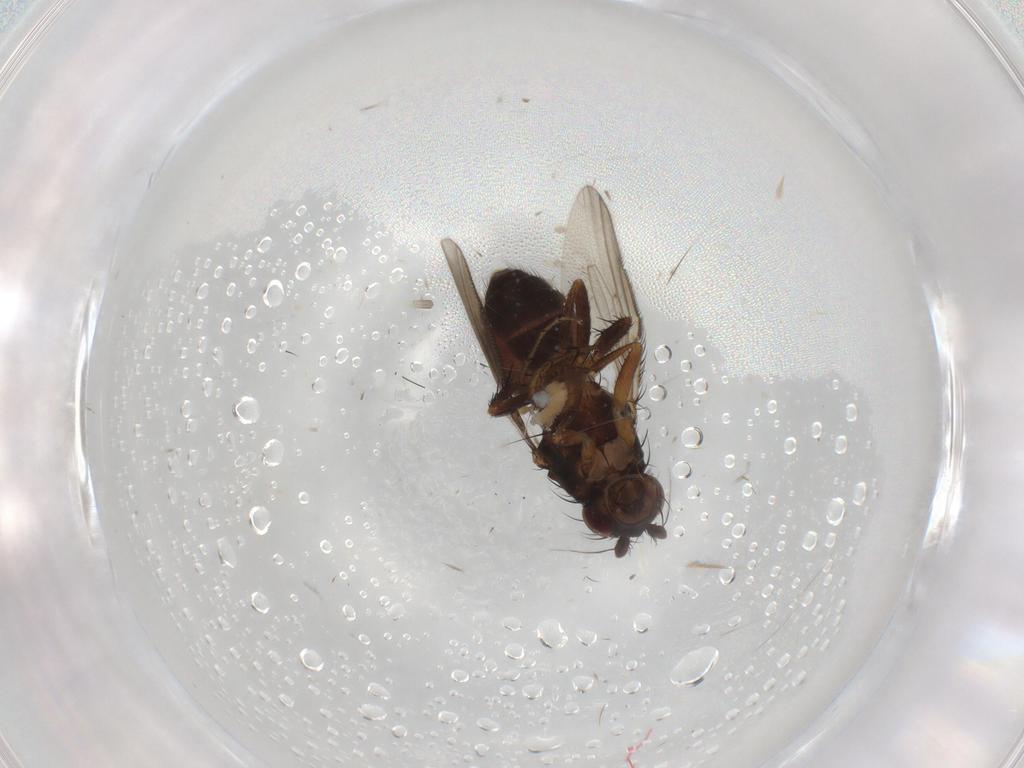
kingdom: Animalia
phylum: Arthropoda
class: Insecta
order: Diptera
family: Sphaeroceridae
